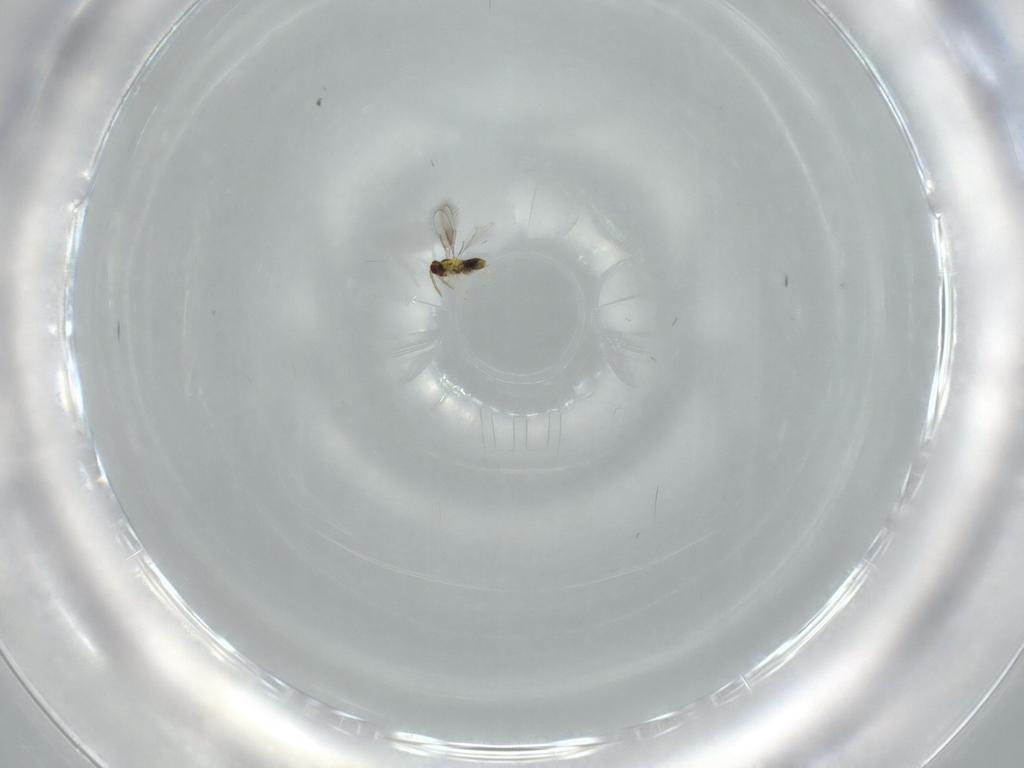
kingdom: Animalia
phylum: Arthropoda
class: Insecta
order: Hymenoptera
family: Aphelinidae
